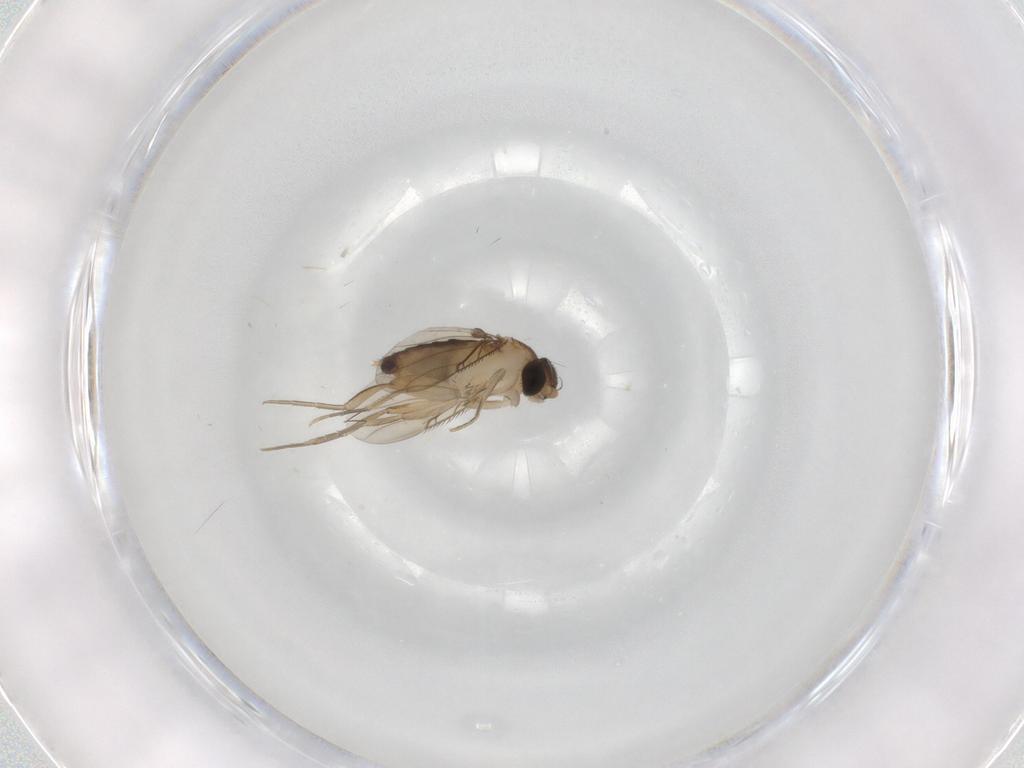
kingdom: Animalia
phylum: Arthropoda
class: Insecta
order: Diptera
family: Phoridae
